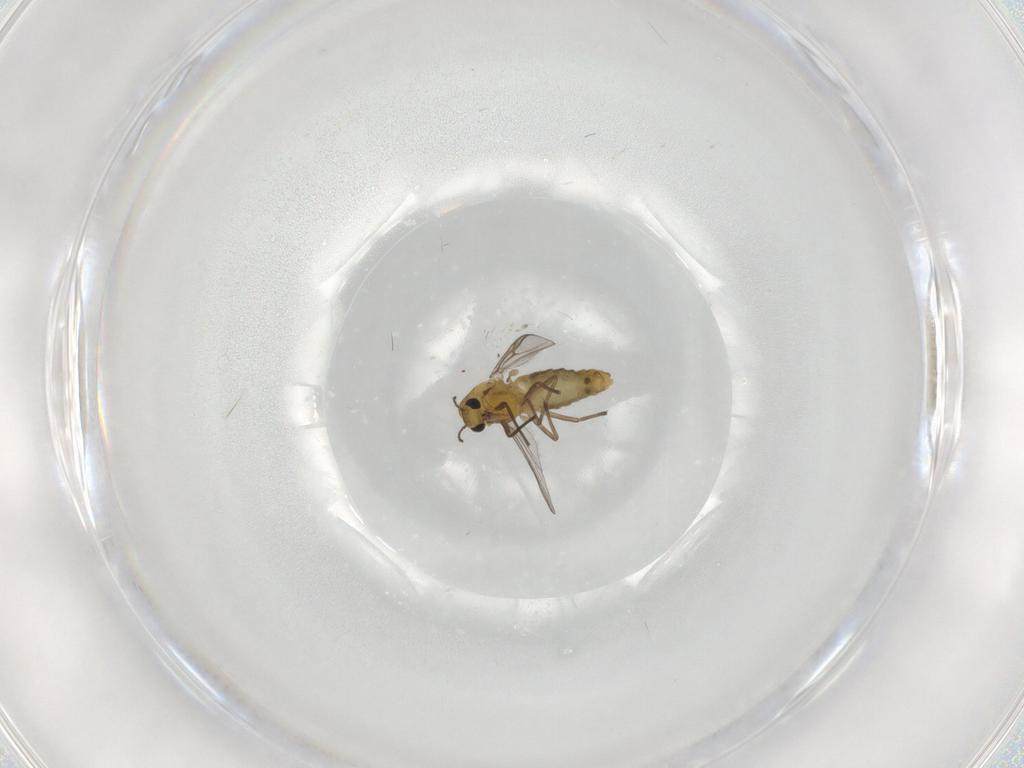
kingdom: Animalia
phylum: Arthropoda
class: Insecta
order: Diptera
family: Chironomidae
